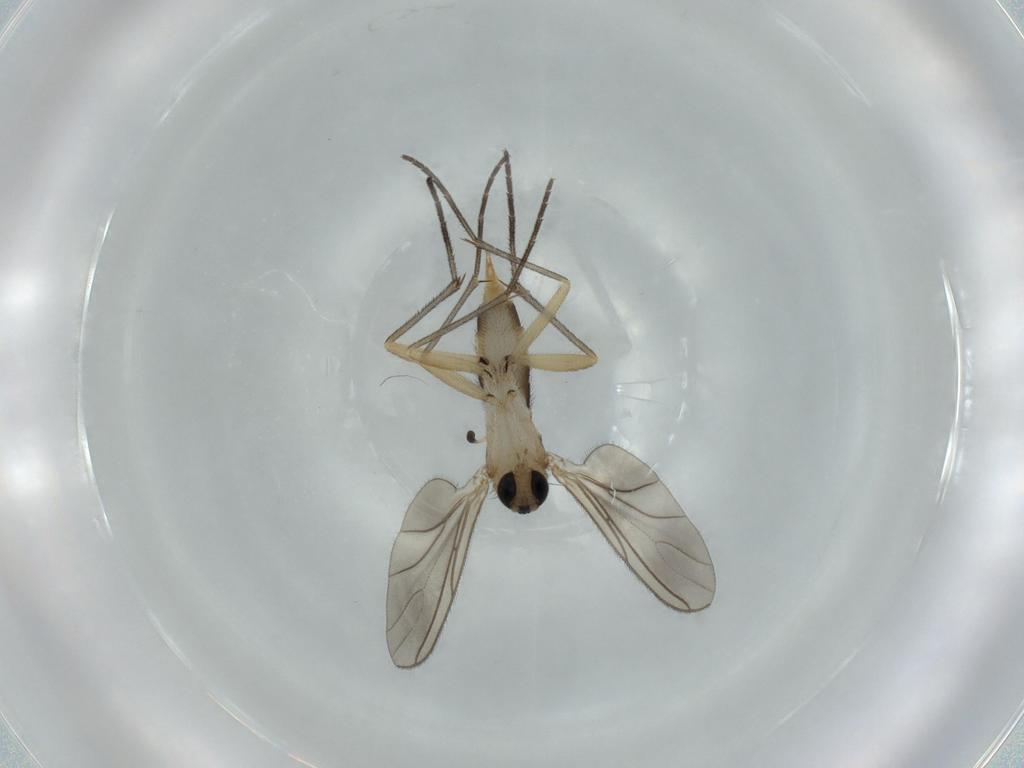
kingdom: Animalia
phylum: Arthropoda
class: Insecta
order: Diptera
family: Sciaridae
